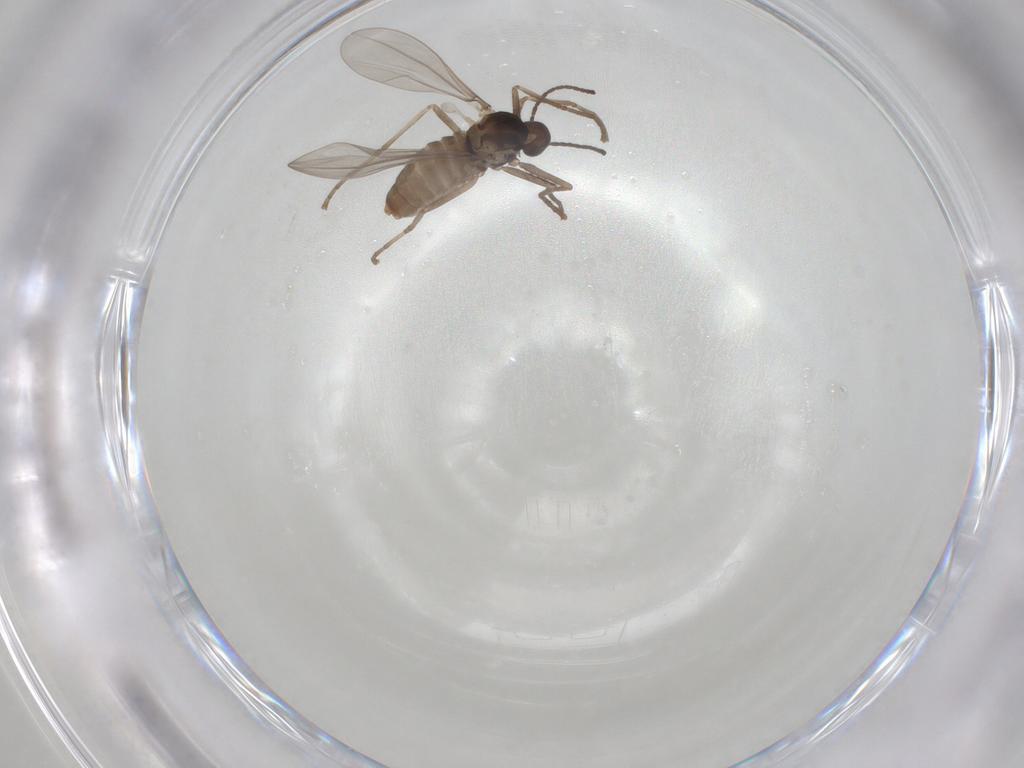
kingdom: Animalia
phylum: Arthropoda
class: Insecta
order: Diptera
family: Cecidomyiidae
